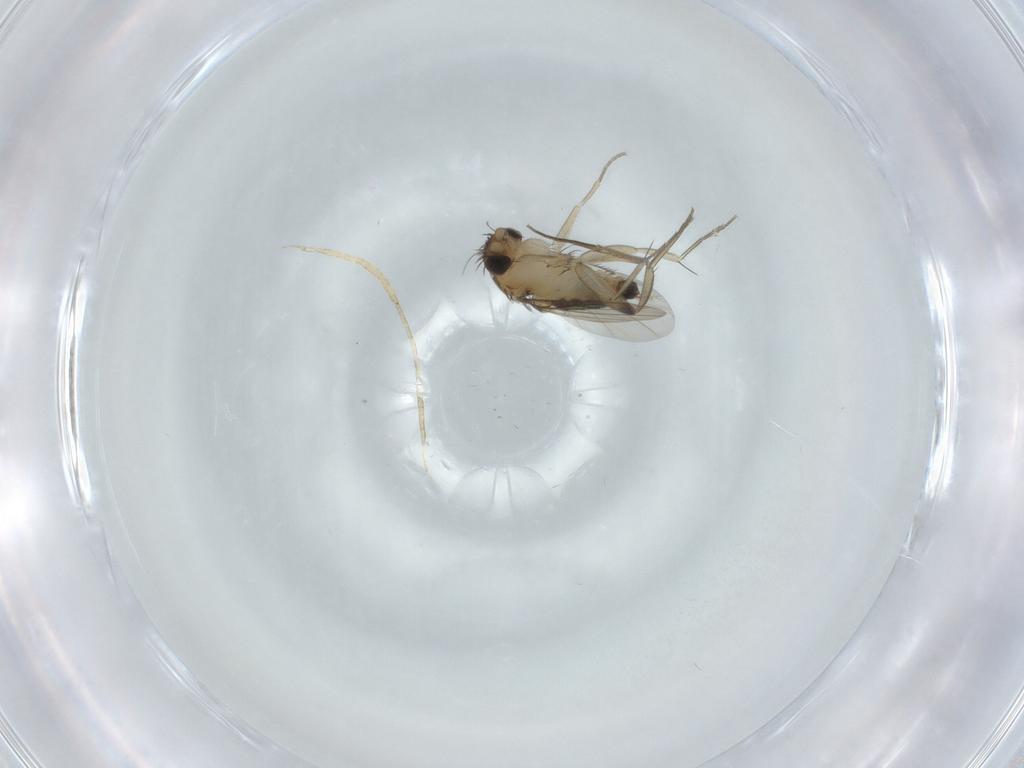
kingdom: Animalia
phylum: Arthropoda
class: Insecta
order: Diptera
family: Phoridae
